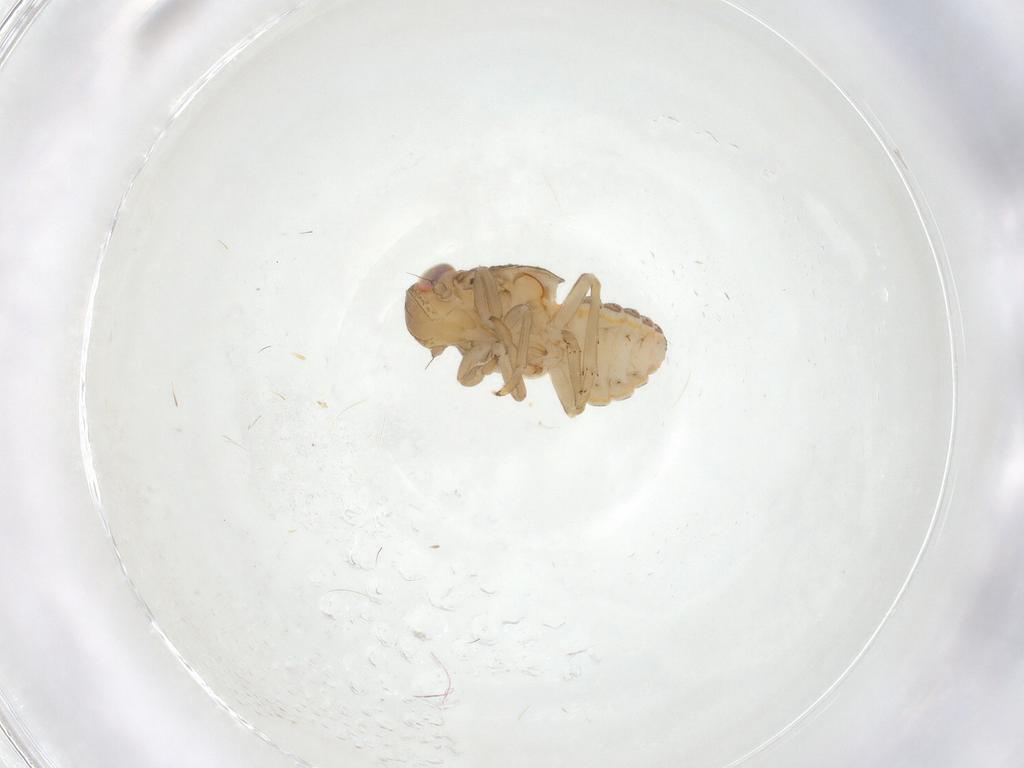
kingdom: Animalia
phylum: Arthropoda
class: Insecta
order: Hemiptera
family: Issidae
